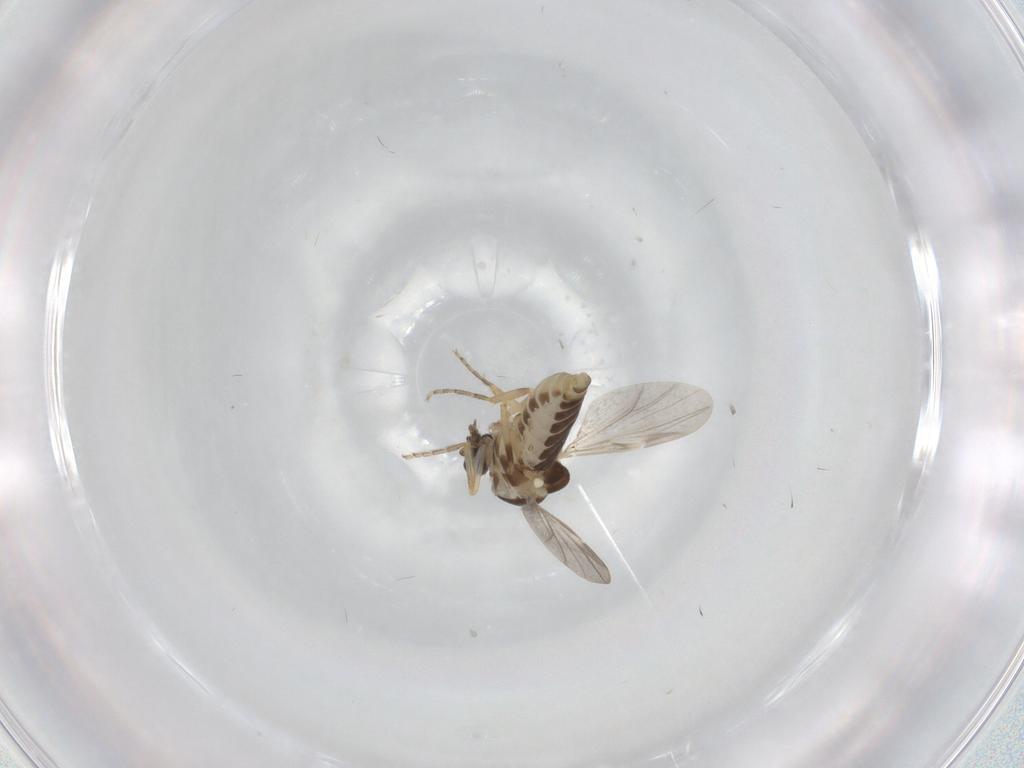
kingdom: Animalia
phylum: Arthropoda
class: Insecta
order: Diptera
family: Ceratopogonidae
